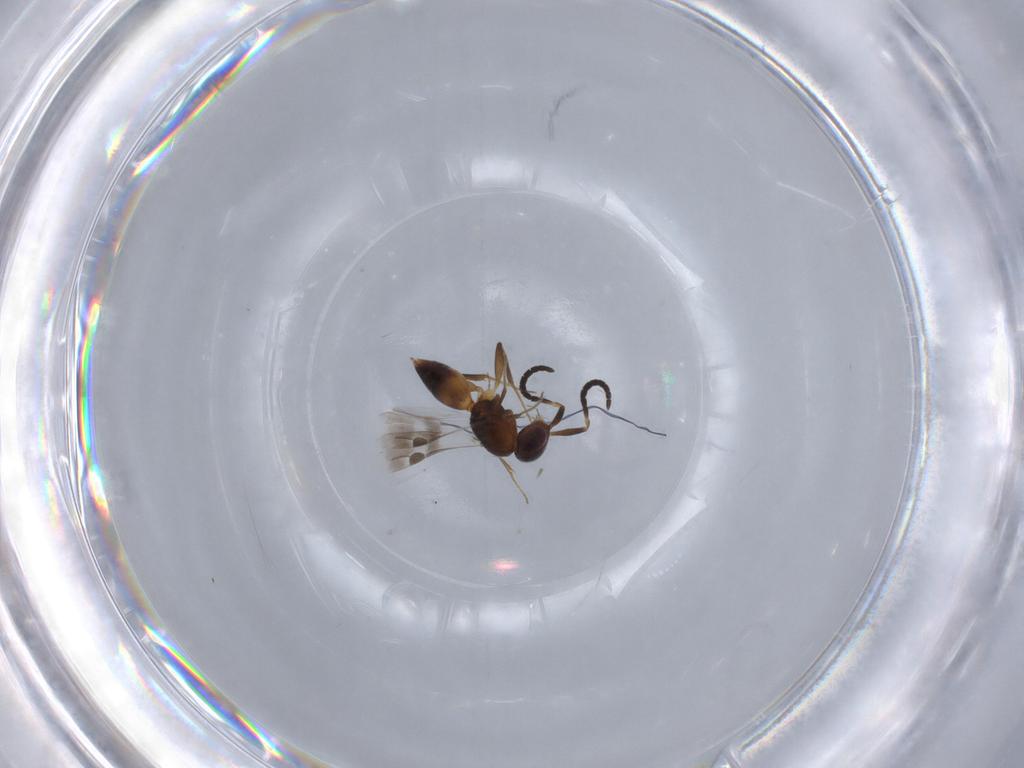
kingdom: Animalia
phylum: Arthropoda
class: Insecta
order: Hymenoptera
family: Megaspilidae
